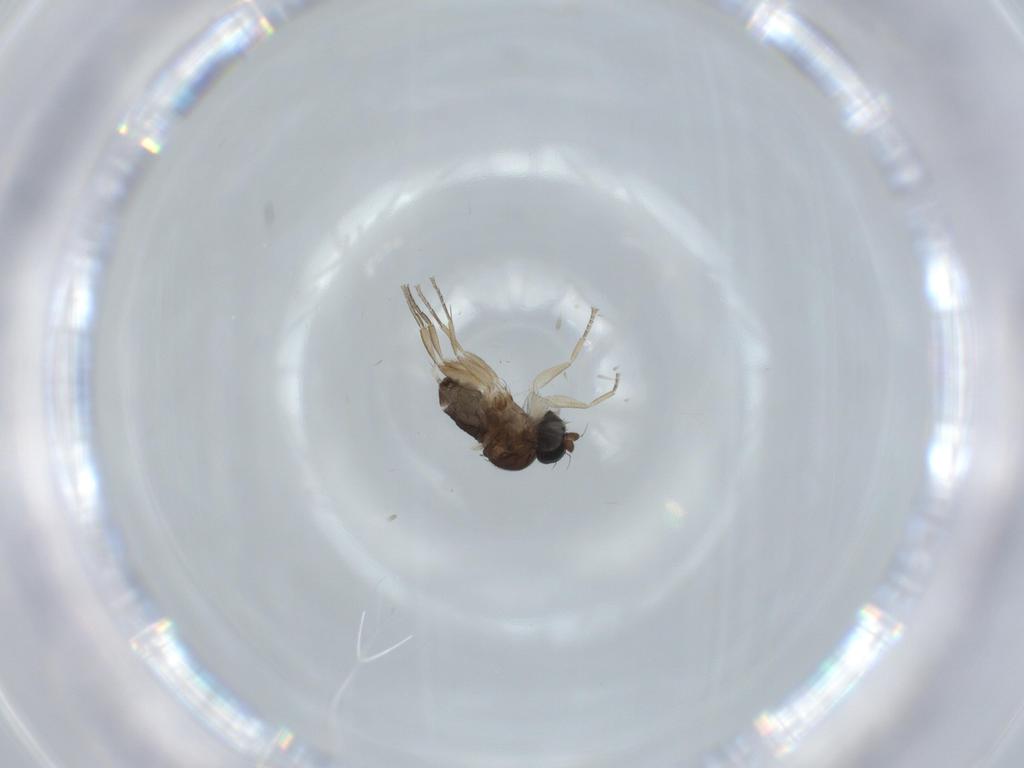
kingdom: Animalia
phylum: Arthropoda
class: Insecta
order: Diptera
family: Phoridae
